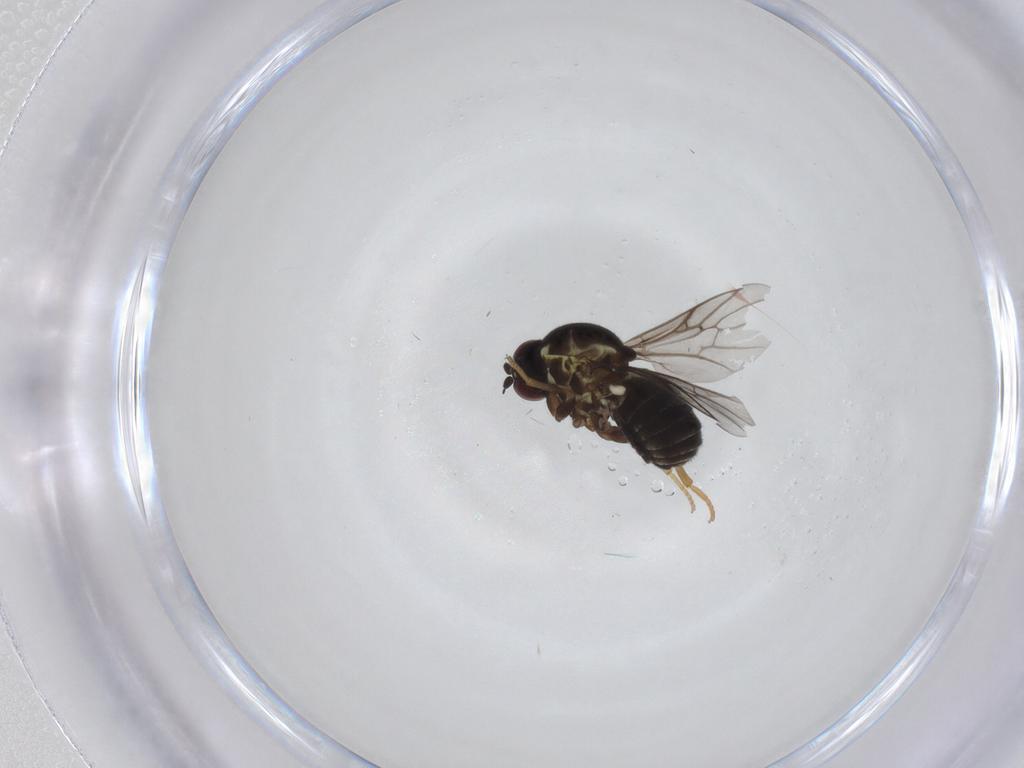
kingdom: Animalia
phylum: Arthropoda
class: Insecta
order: Diptera
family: Bombyliidae
